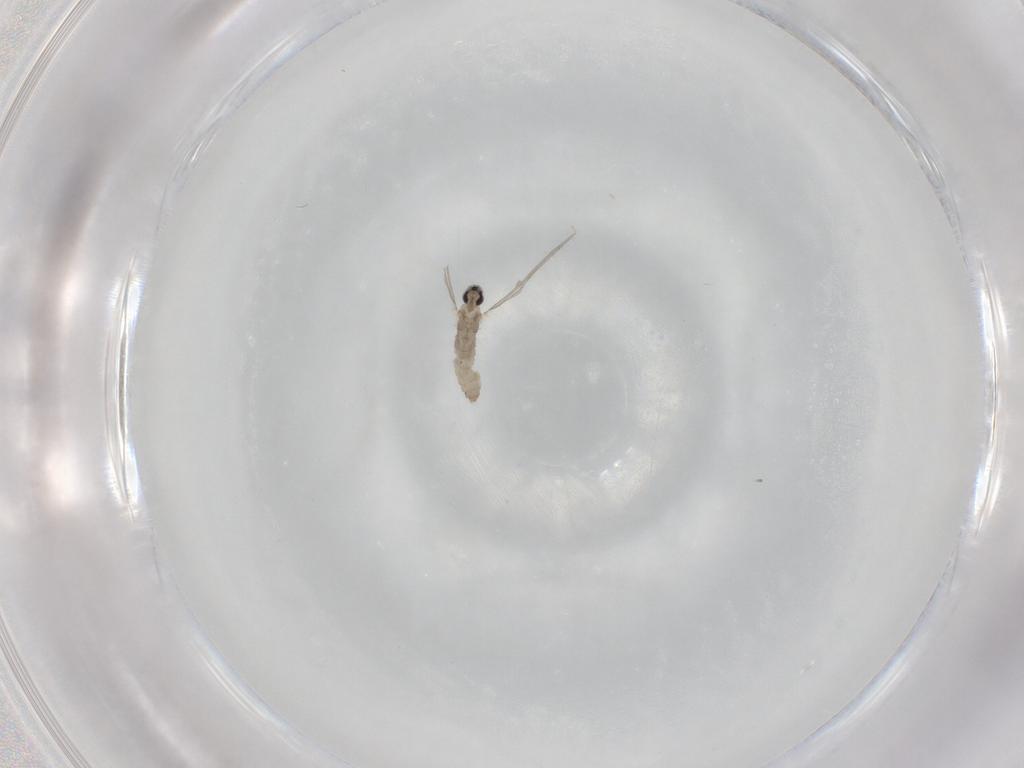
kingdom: Animalia
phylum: Arthropoda
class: Insecta
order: Diptera
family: Cecidomyiidae
